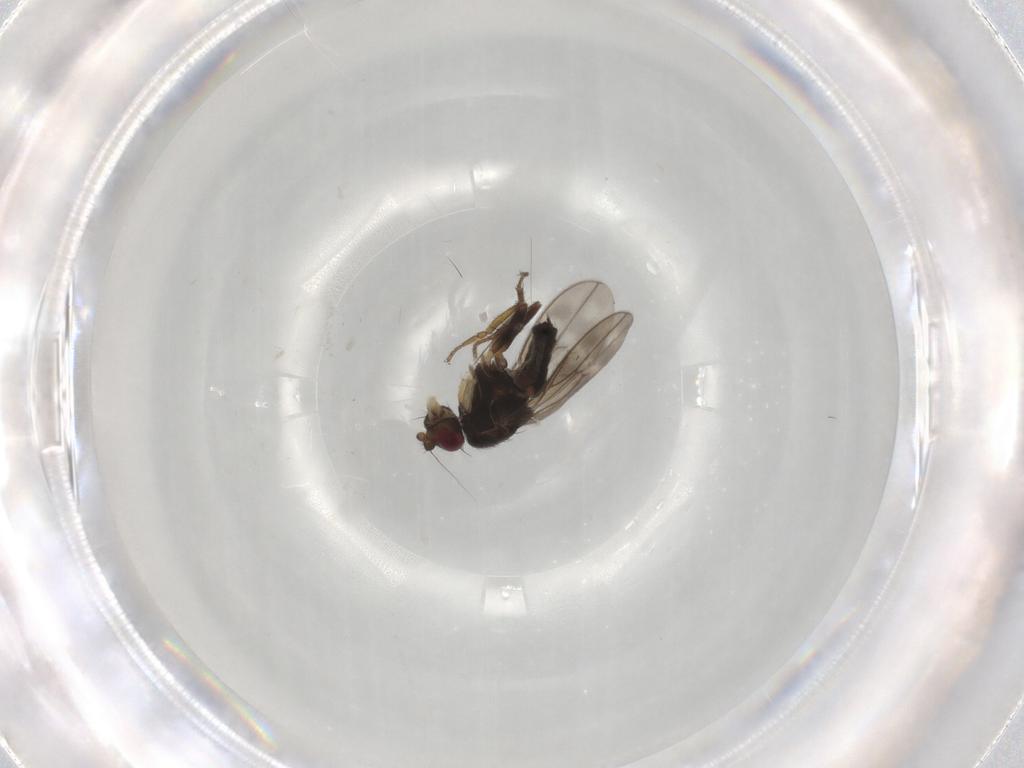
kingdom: Animalia
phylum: Arthropoda
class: Insecta
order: Diptera
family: Sphaeroceridae
